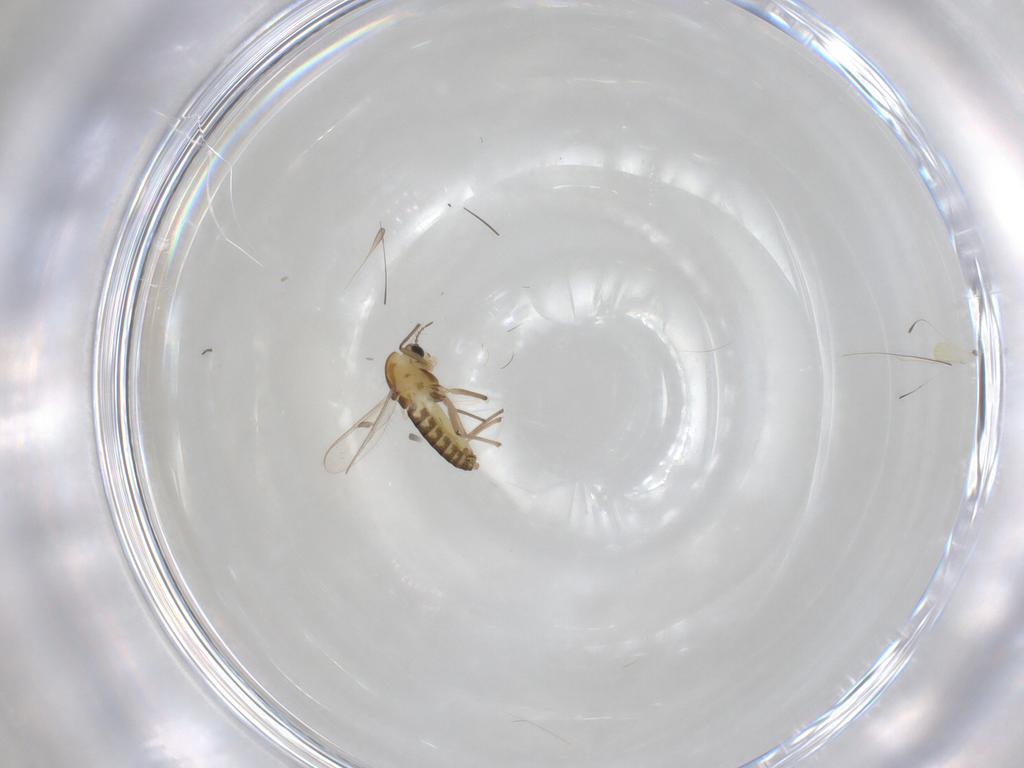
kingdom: Animalia
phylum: Arthropoda
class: Insecta
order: Diptera
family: Chironomidae
